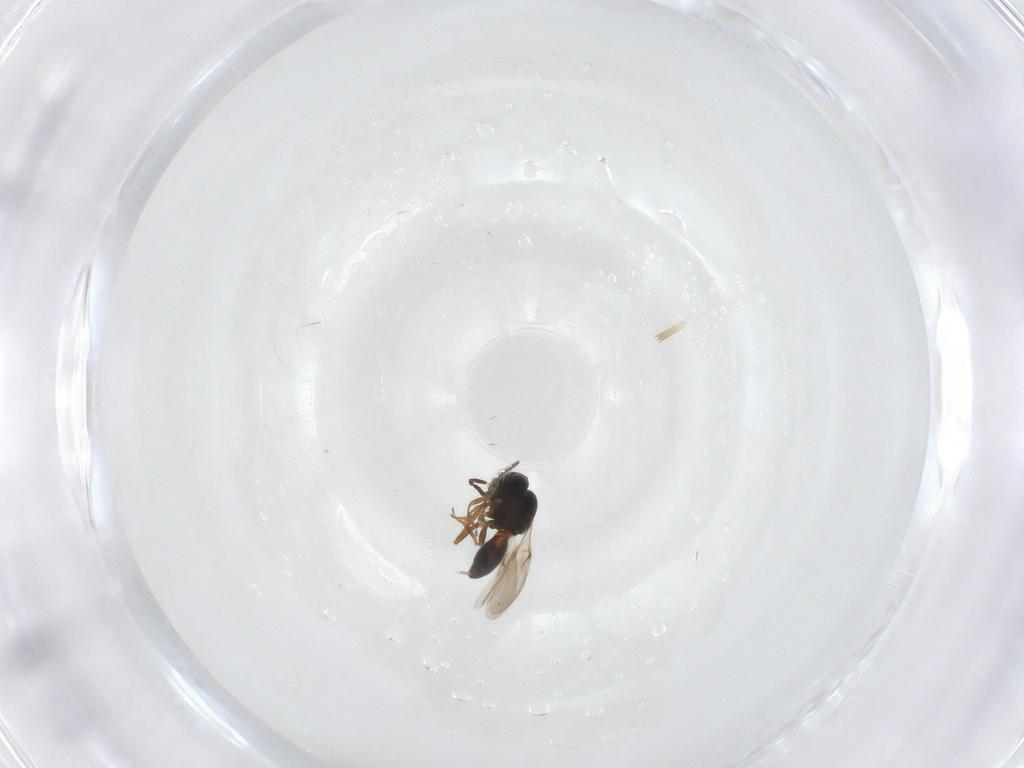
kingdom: Animalia
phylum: Arthropoda
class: Insecta
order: Hymenoptera
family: Scelionidae
